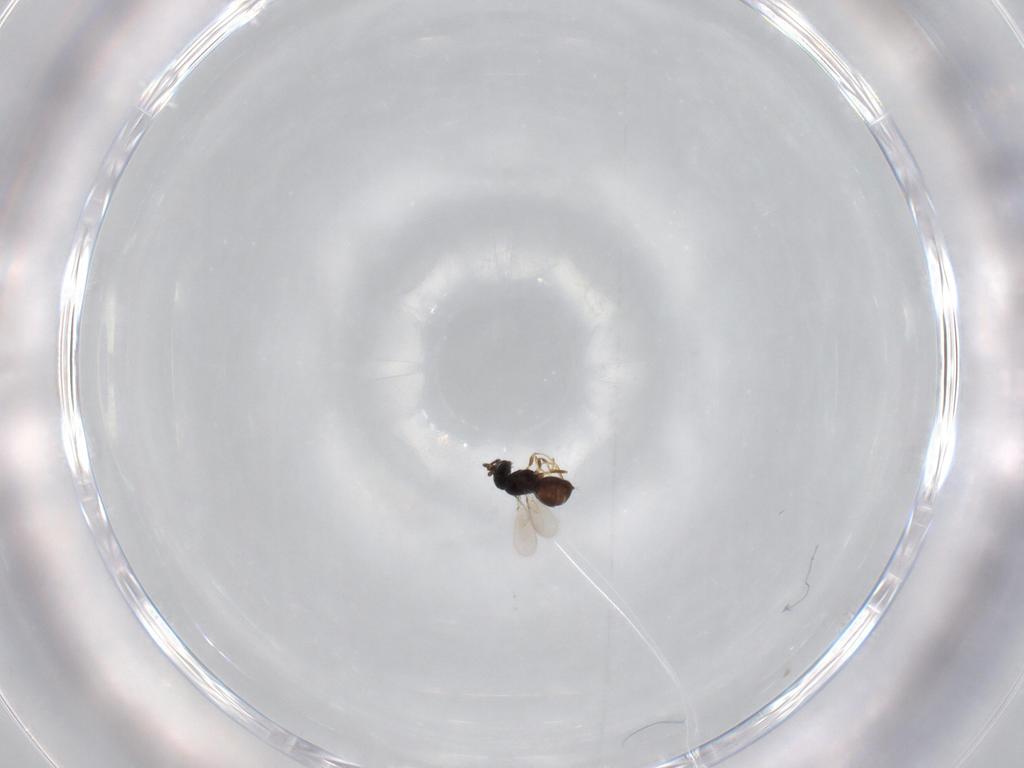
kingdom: Animalia
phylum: Arthropoda
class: Insecta
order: Hymenoptera
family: Scelionidae
